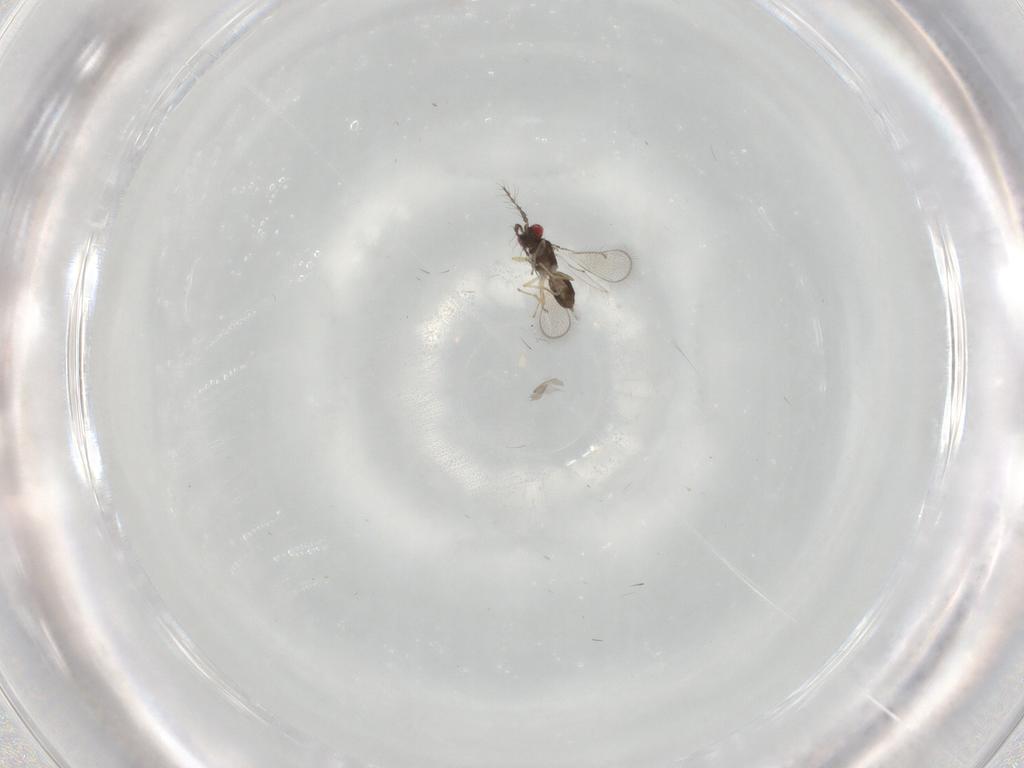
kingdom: Animalia
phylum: Arthropoda
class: Insecta
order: Hymenoptera
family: Eulophidae
